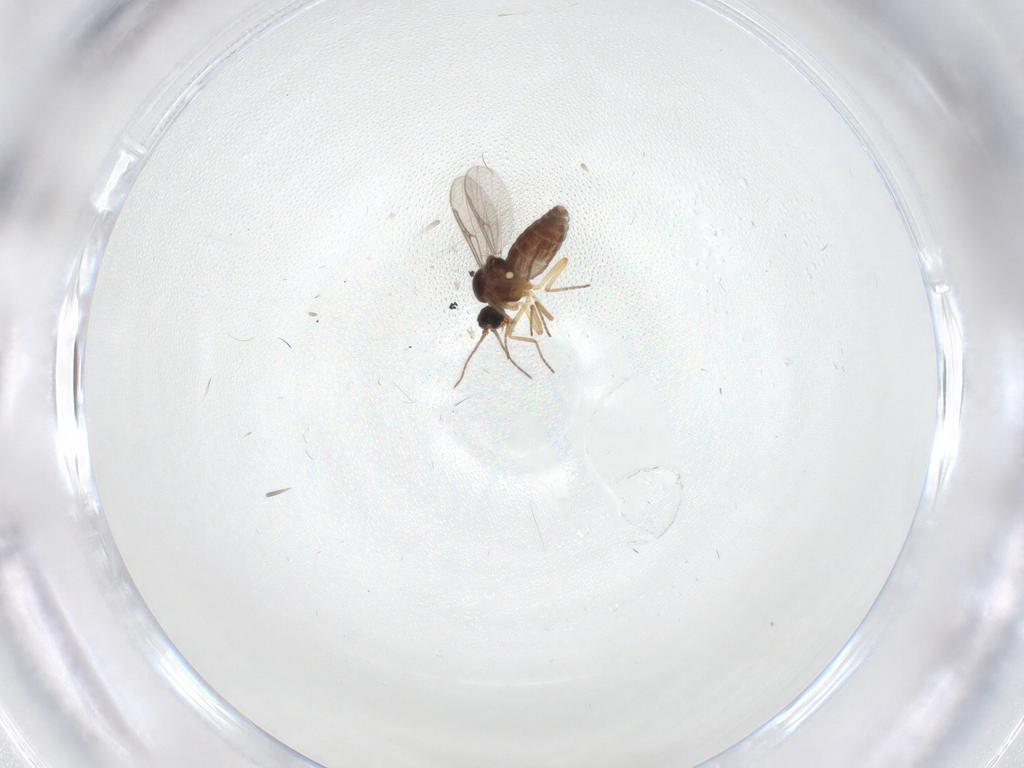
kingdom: Animalia
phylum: Arthropoda
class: Insecta
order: Diptera
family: Ceratopogonidae
